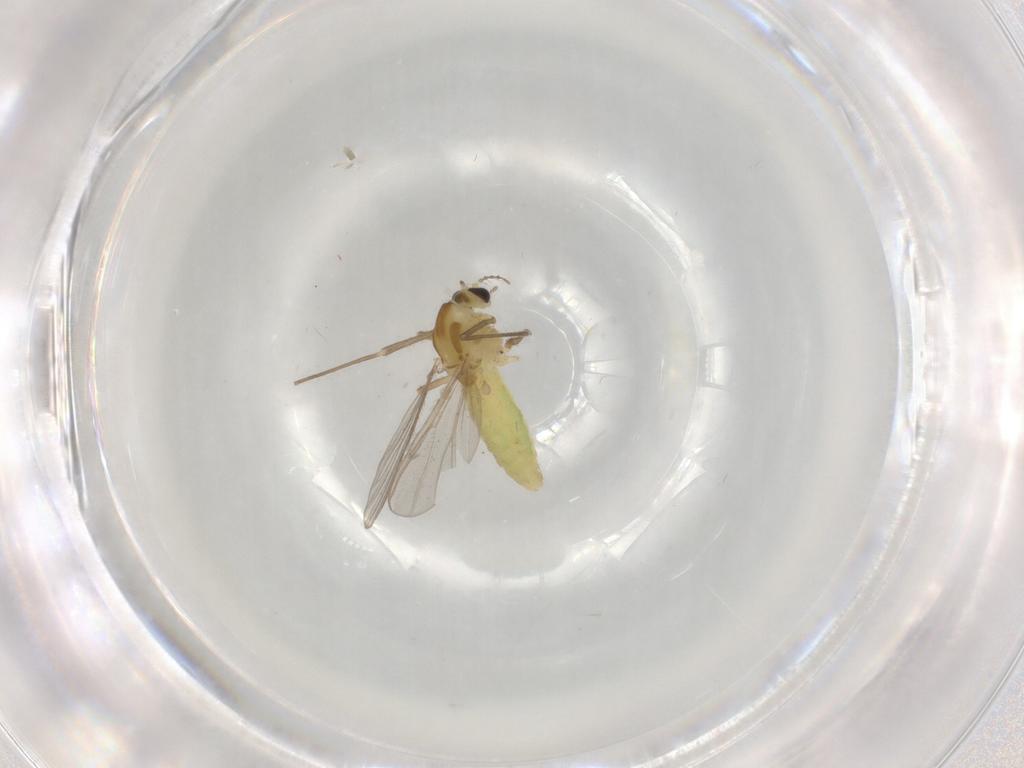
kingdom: Animalia
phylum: Arthropoda
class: Insecta
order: Diptera
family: Chironomidae
